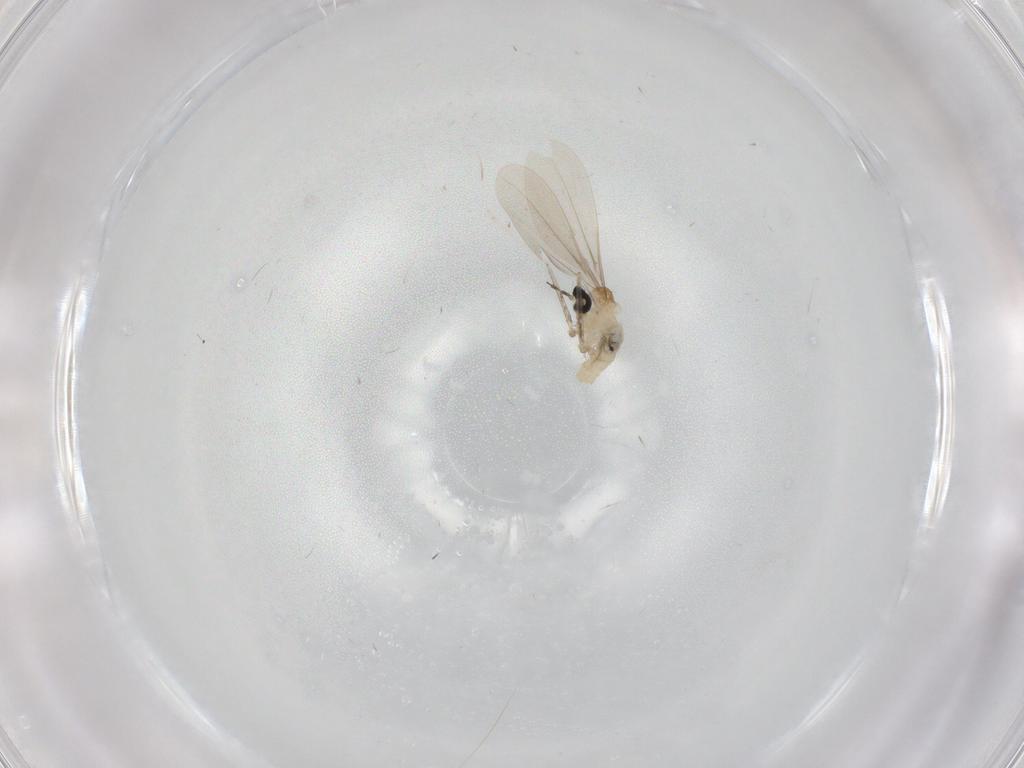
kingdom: Animalia
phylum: Arthropoda
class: Insecta
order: Diptera
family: Cecidomyiidae
